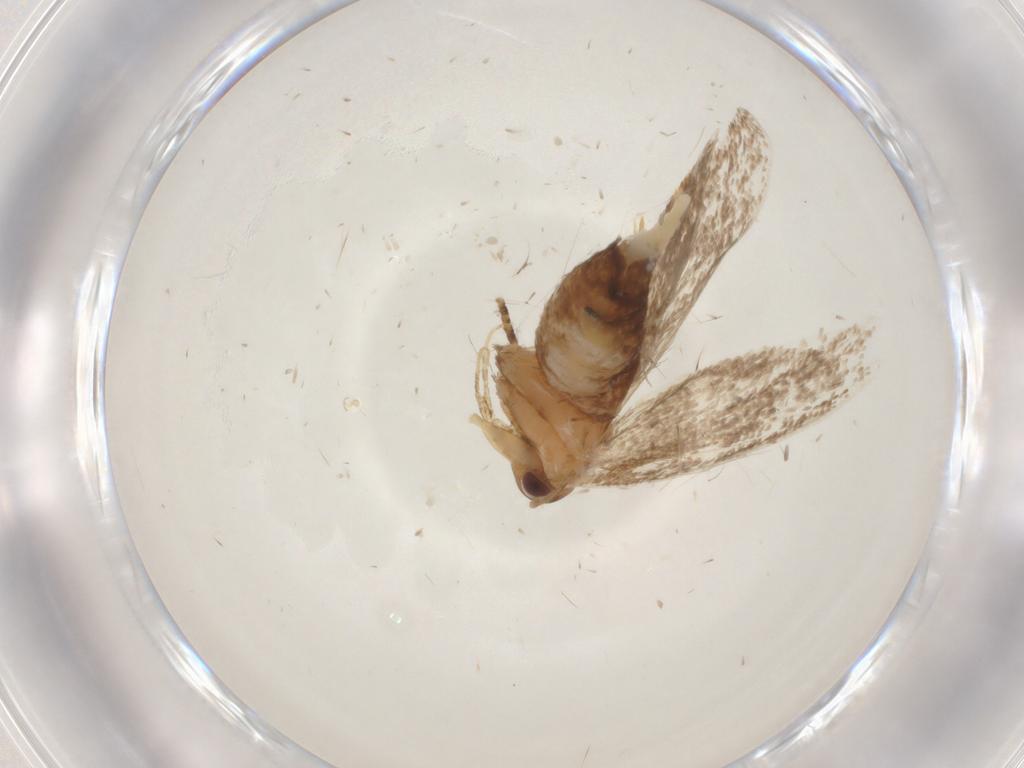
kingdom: Animalia
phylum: Arthropoda
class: Insecta
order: Lepidoptera
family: Oecophoridae
